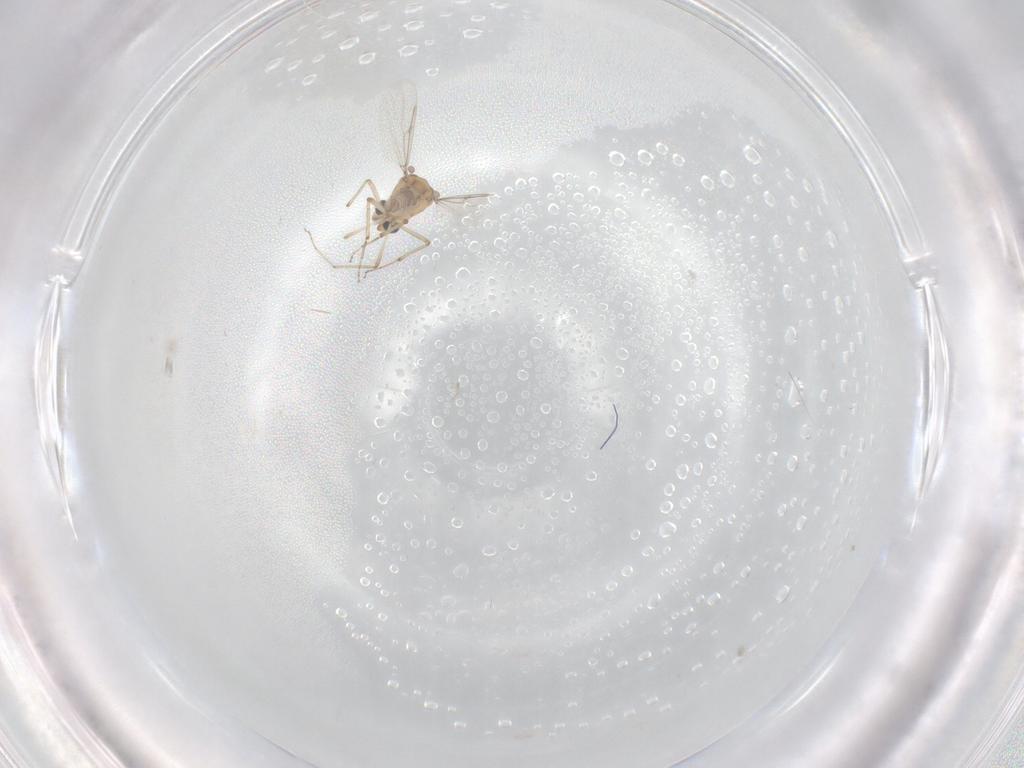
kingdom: Animalia
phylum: Arthropoda
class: Insecta
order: Diptera
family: Ceratopogonidae
